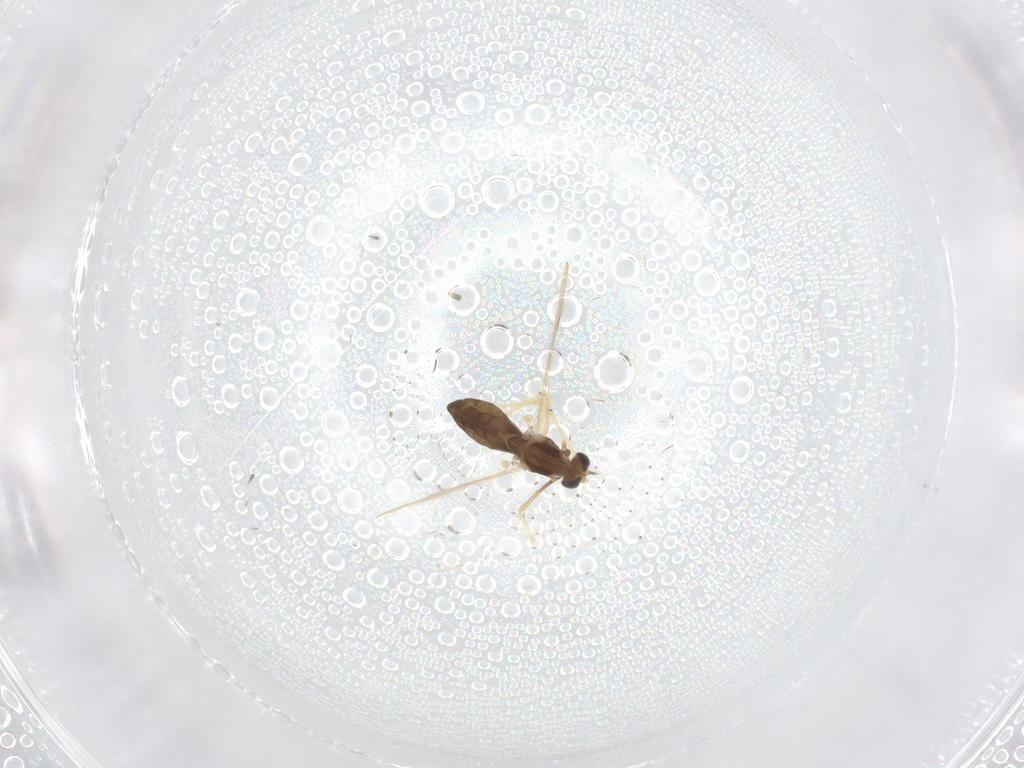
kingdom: Animalia
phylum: Arthropoda
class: Insecta
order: Diptera
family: Chironomidae
